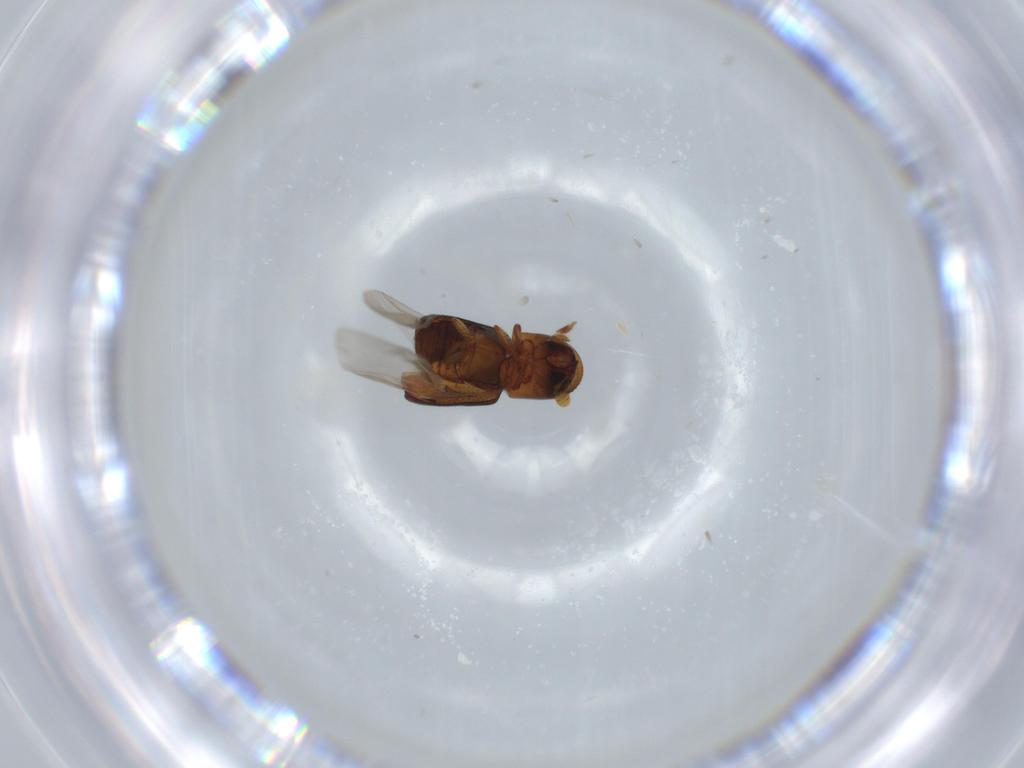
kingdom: Animalia
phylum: Arthropoda
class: Insecta
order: Coleoptera
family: Curculionidae
